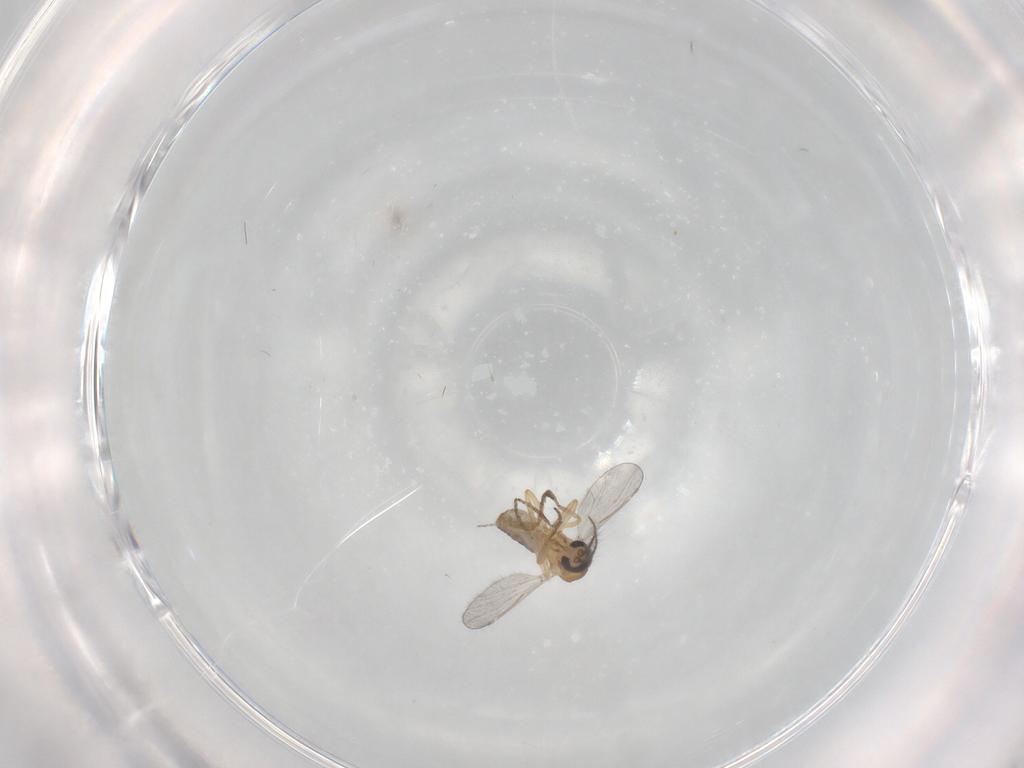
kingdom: Animalia
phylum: Arthropoda
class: Insecta
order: Diptera
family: Ceratopogonidae
